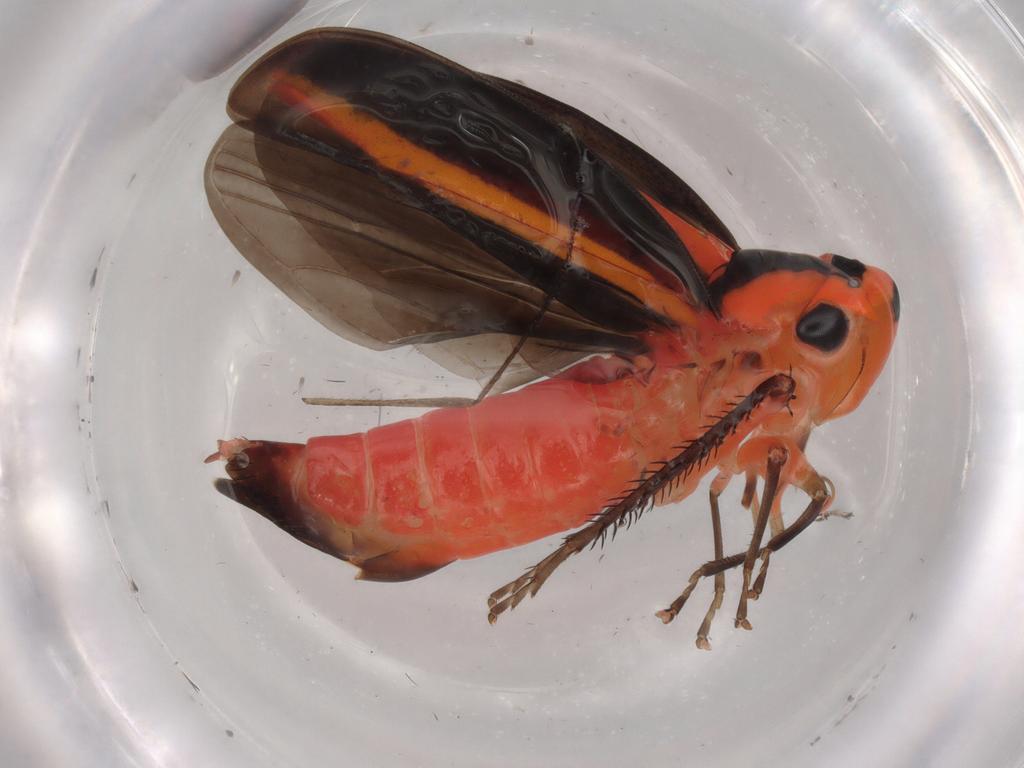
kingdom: Animalia
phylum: Arthropoda
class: Insecta
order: Hemiptera
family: Cicadellidae
